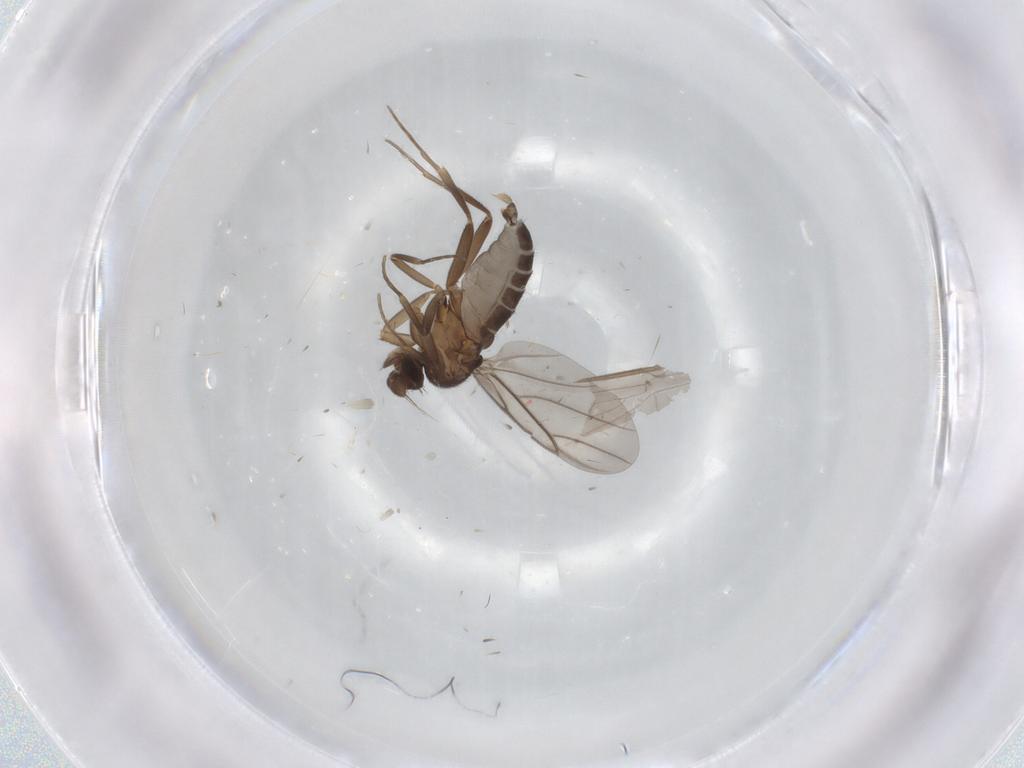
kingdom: Animalia
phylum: Arthropoda
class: Insecta
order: Diptera
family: Phoridae
